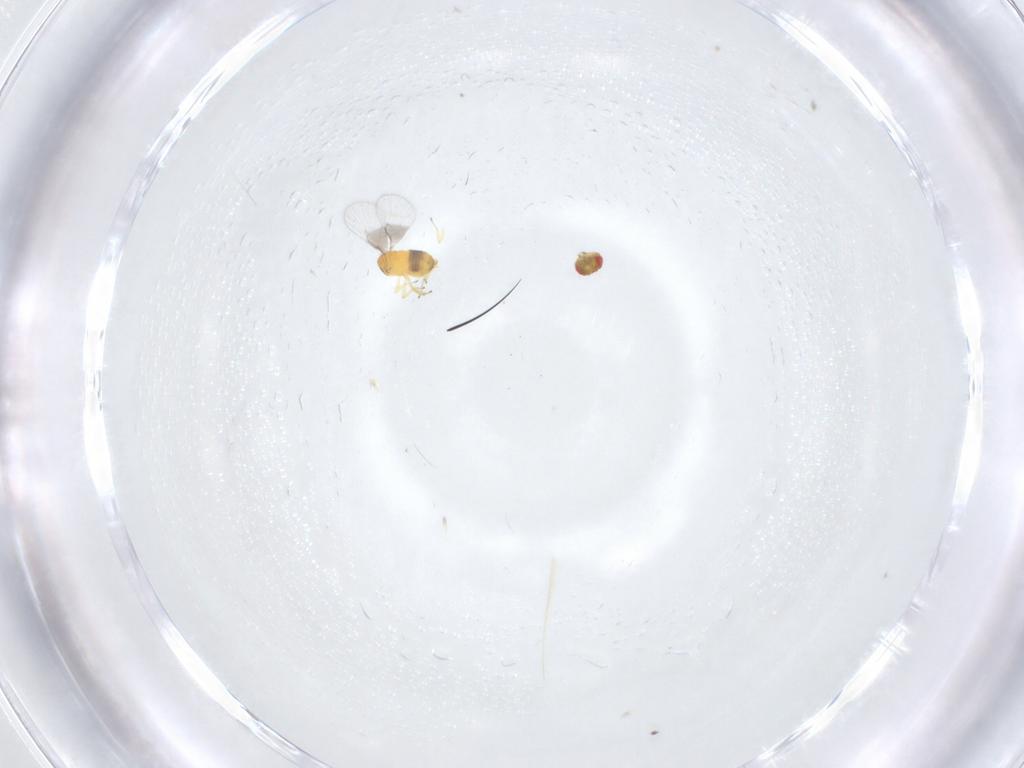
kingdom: Animalia
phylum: Arthropoda
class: Insecta
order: Hymenoptera
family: Trichogrammatidae
